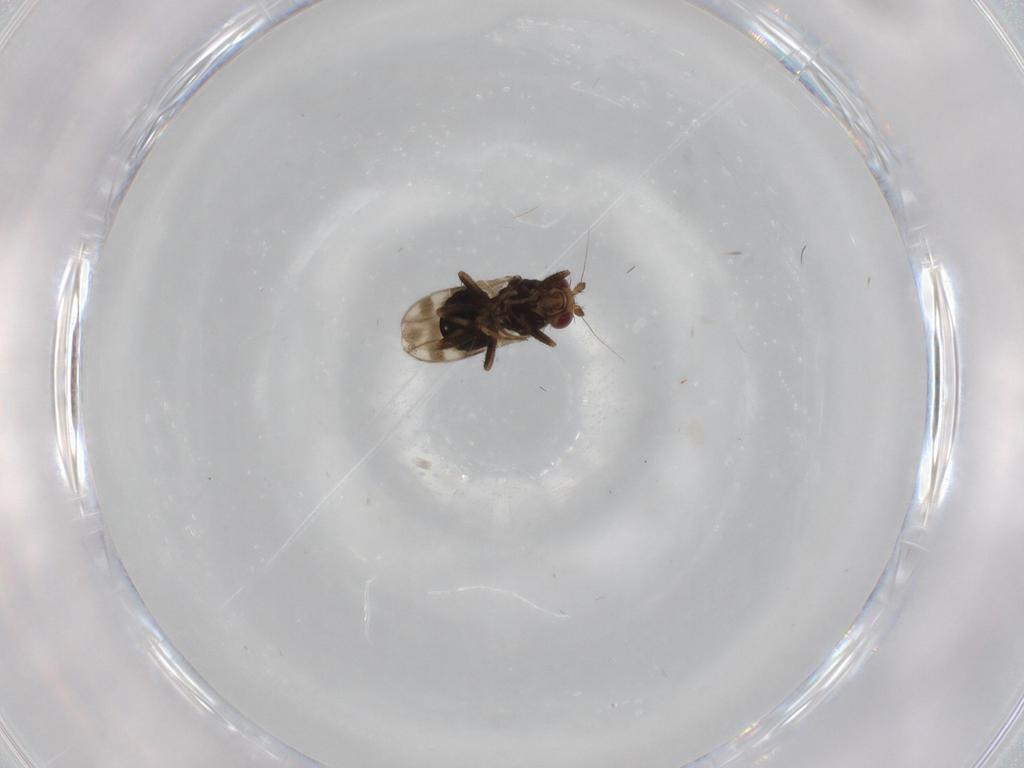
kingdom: Animalia
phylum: Arthropoda
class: Insecta
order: Diptera
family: Sphaeroceridae
